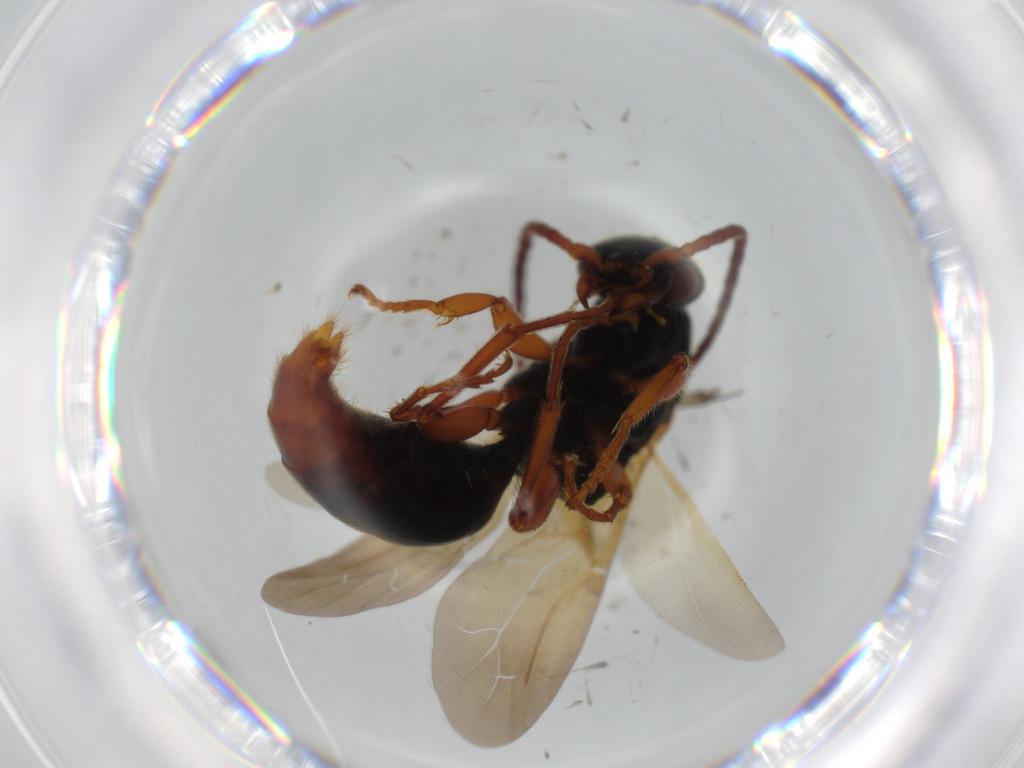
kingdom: Animalia
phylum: Arthropoda
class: Insecta
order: Hymenoptera
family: Bethylidae
